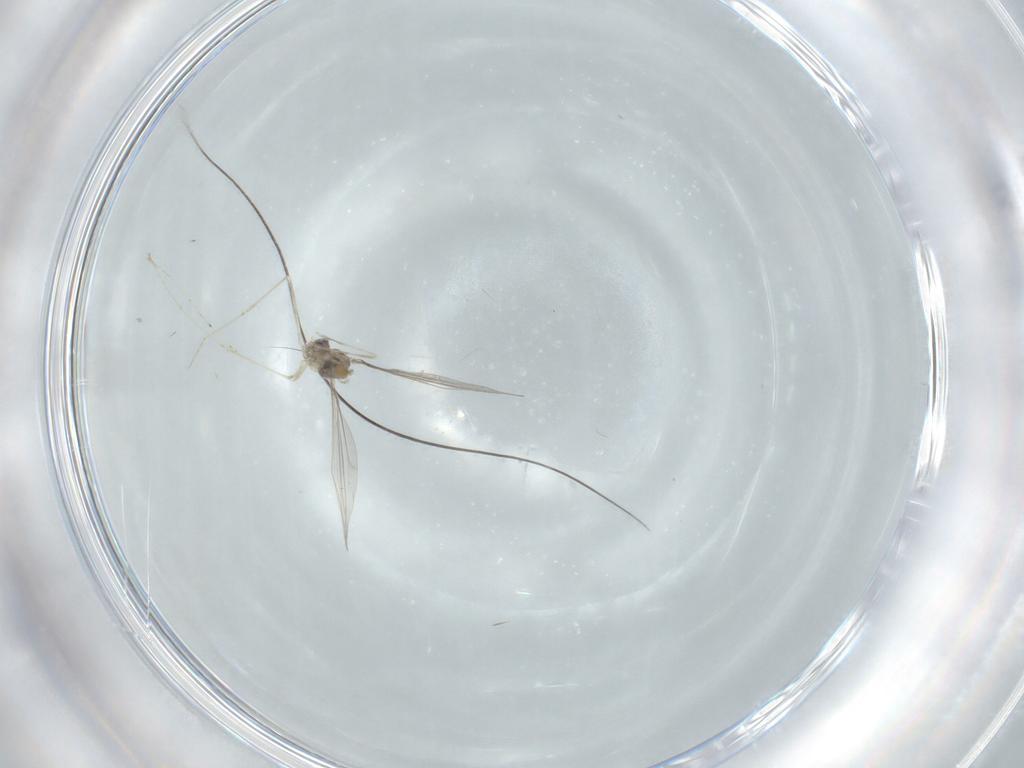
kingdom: Animalia
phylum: Arthropoda
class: Insecta
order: Diptera
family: Cecidomyiidae
